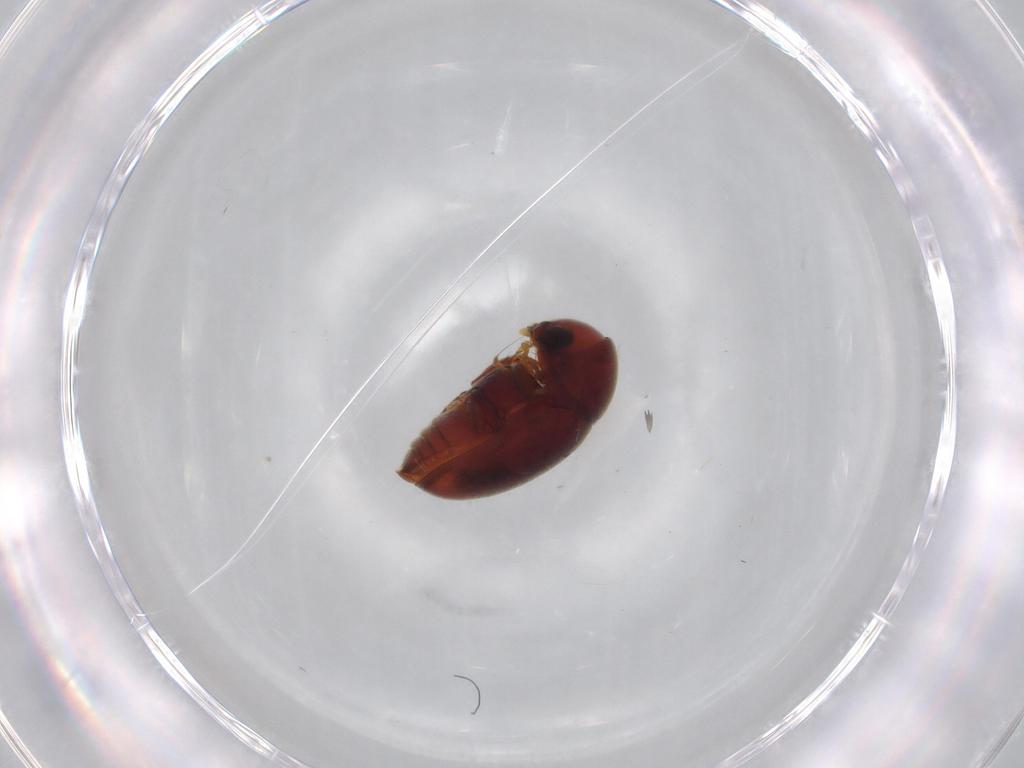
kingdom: Animalia
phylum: Arthropoda
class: Insecta
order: Coleoptera
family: Ptinidae
